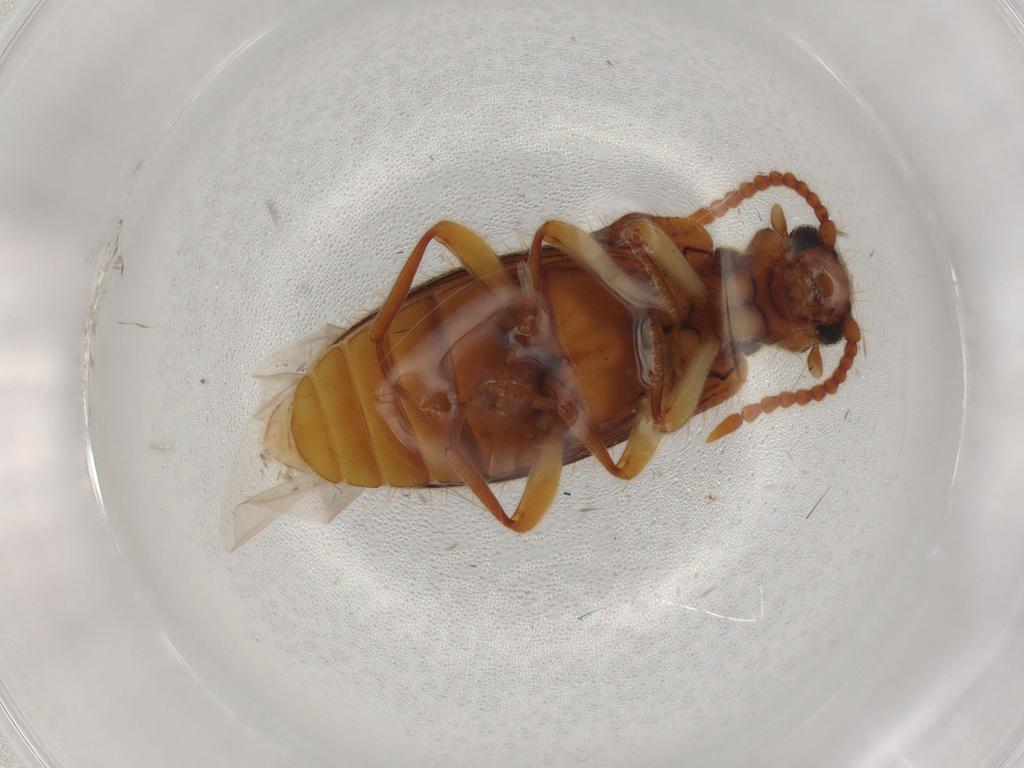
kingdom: Animalia
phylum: Arthropoda
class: Insecta
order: Coleoptera
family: Anthicidae
